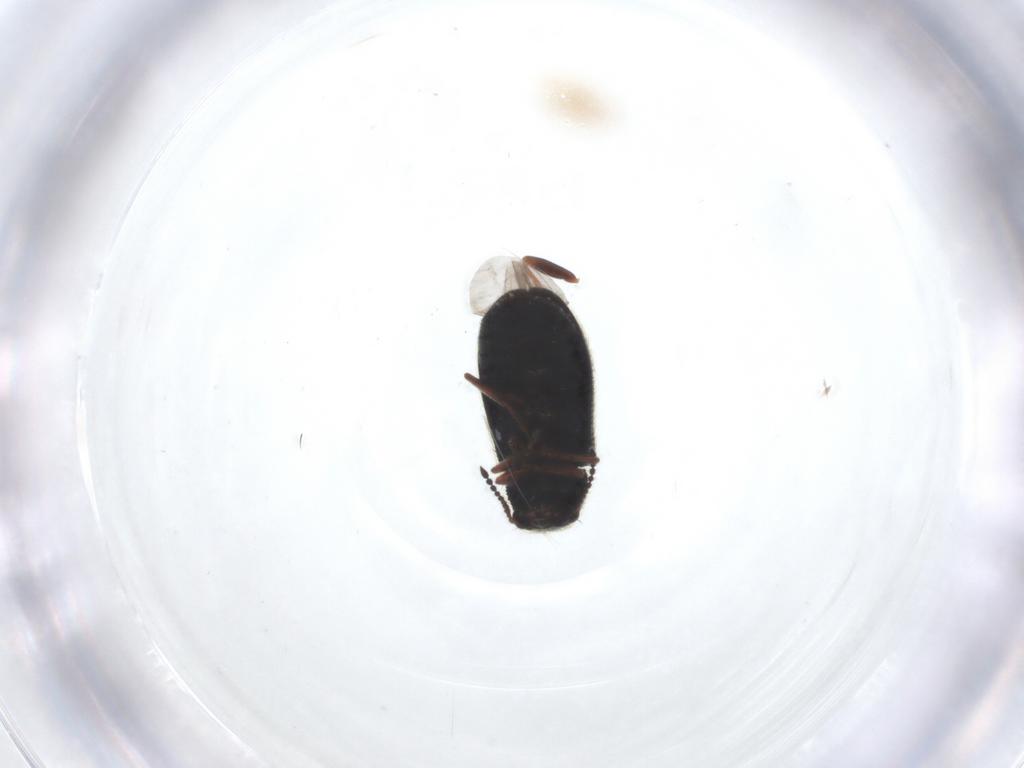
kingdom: Animalia
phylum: Arthropoda
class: Insecta
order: Coleoptera
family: Melyridae
